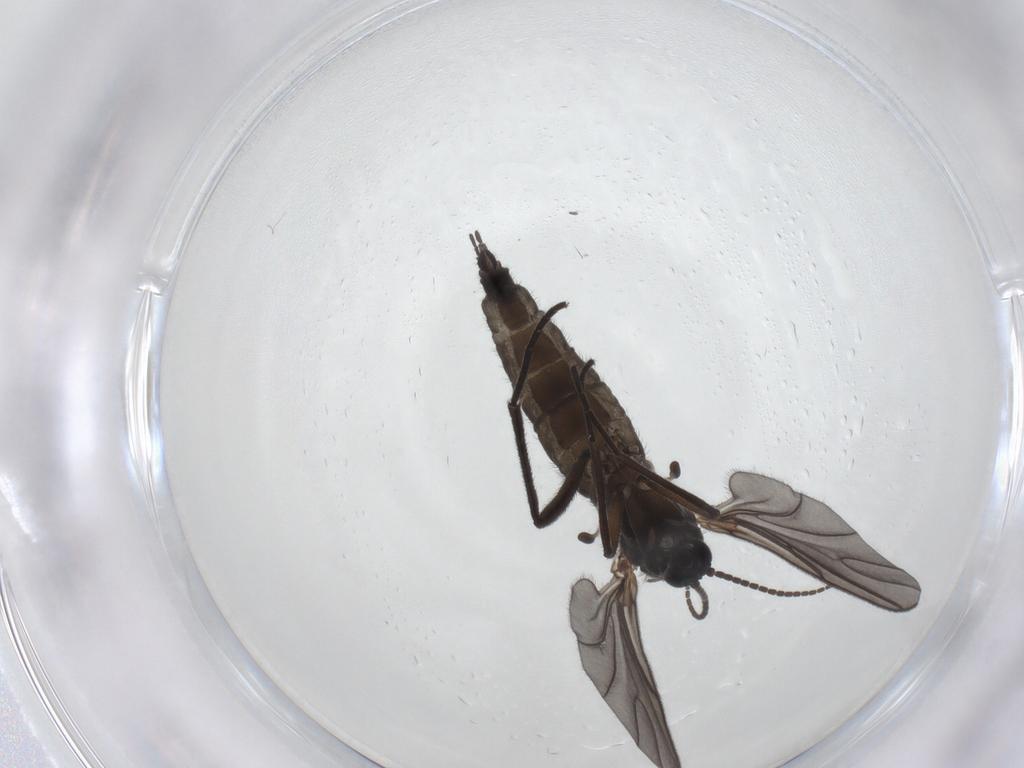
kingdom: Animalia
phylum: Arthropoda
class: Insecta
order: Diptera
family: Sciaridae
